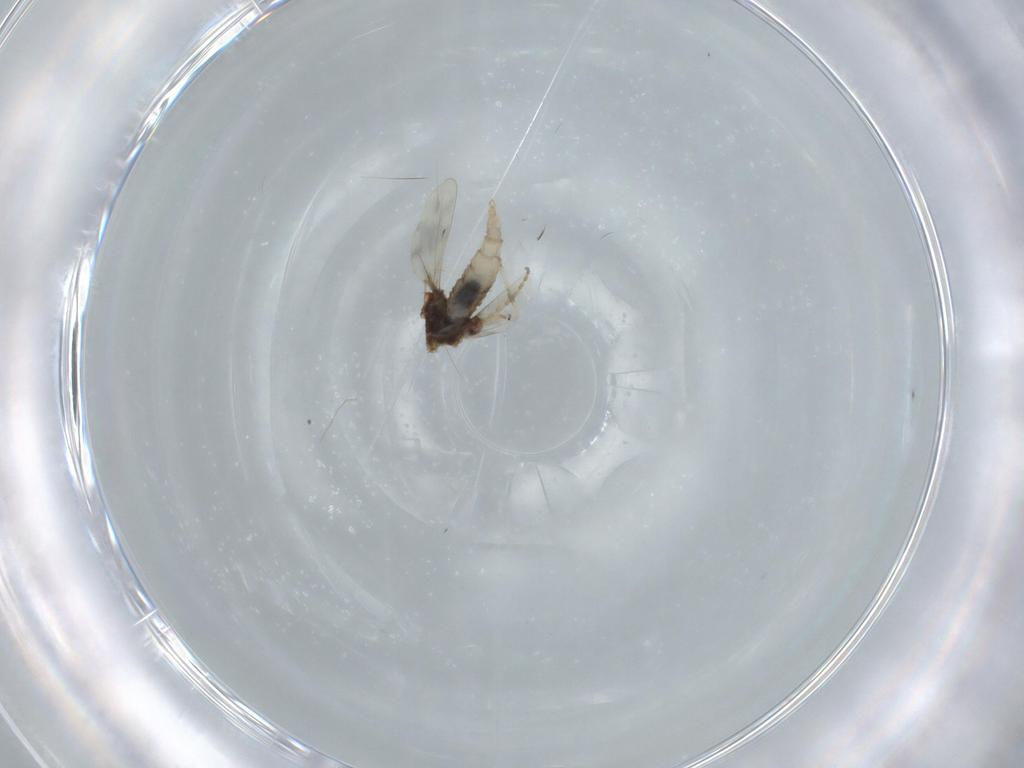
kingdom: Animalia
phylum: Arthropoda
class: Insecta
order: Diptera
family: Cecidomyiidae
